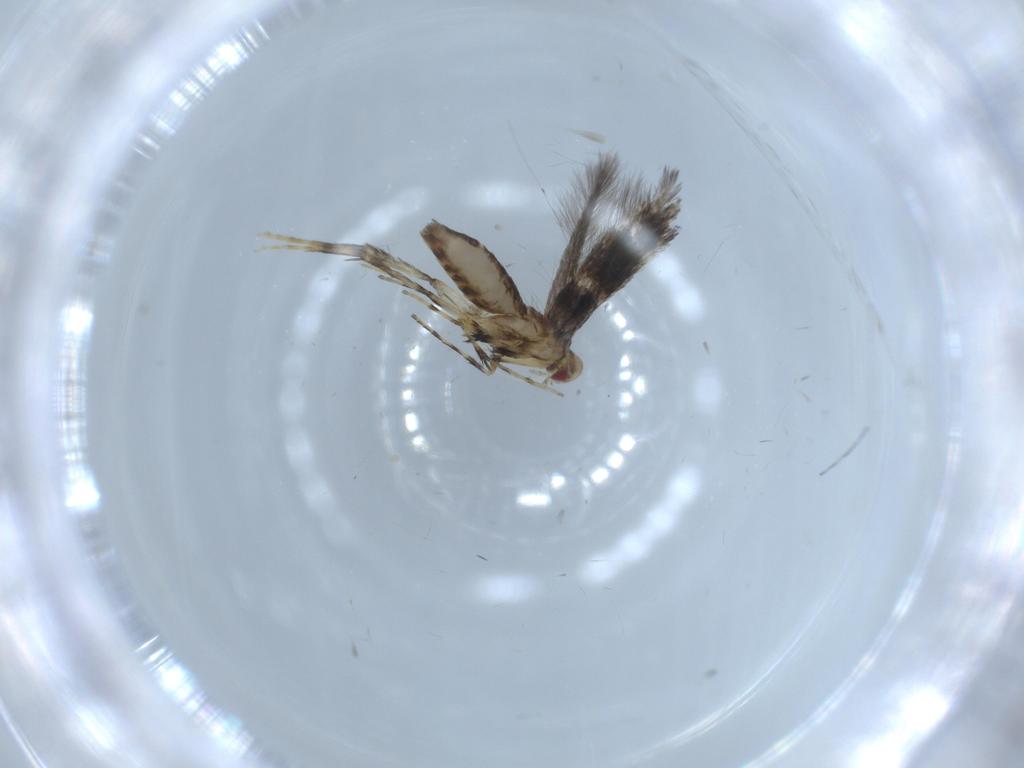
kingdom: Animalia
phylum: Arthropoda
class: Insecta
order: Lepidoptera
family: Gracillariidae
